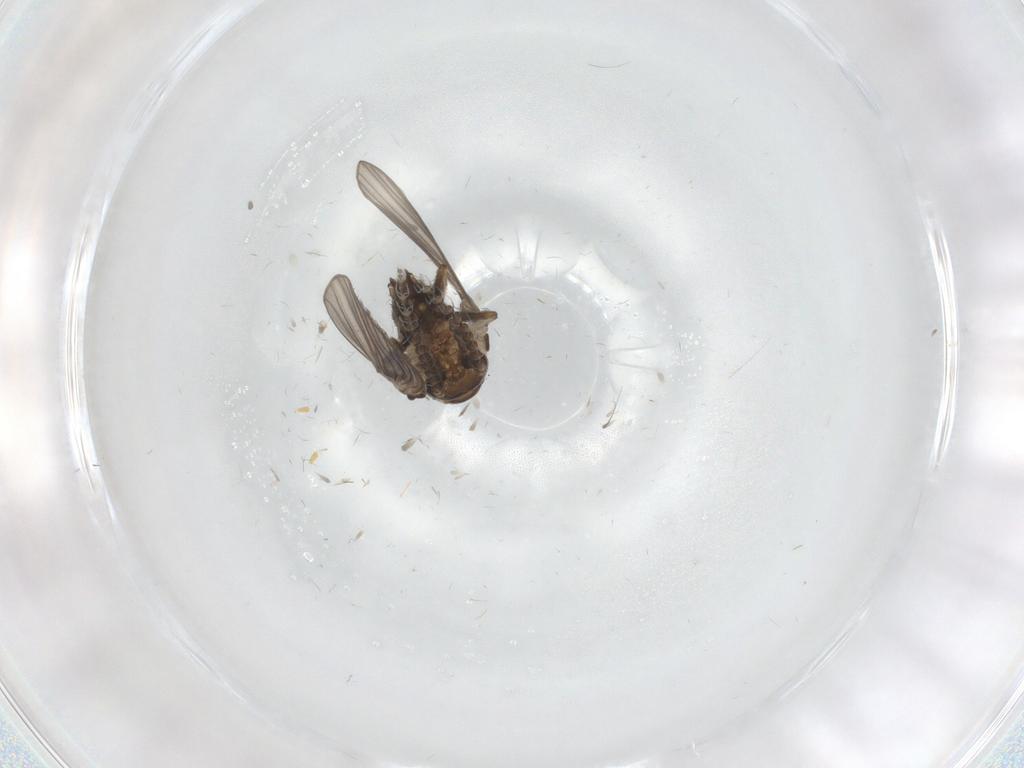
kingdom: Animalia
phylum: Arthropoda
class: Insecta
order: Diptera
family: Psychodidae
